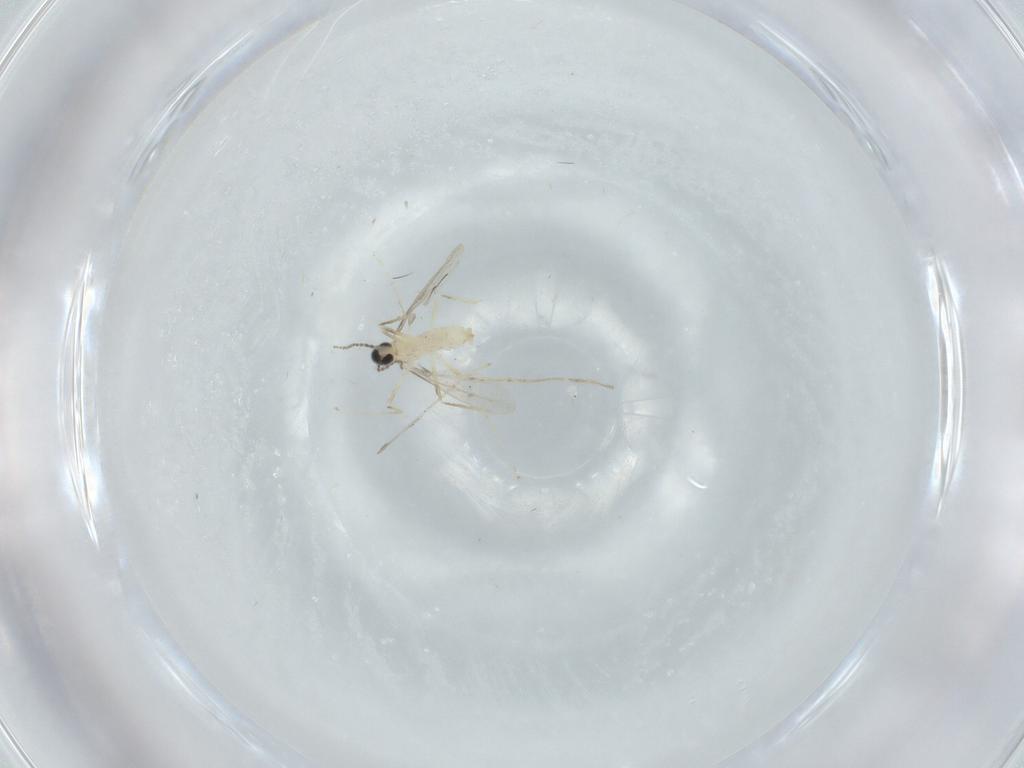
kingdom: Animalia
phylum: Arthropoda
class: Insecta
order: Diptera
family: Cecidomyiidae
